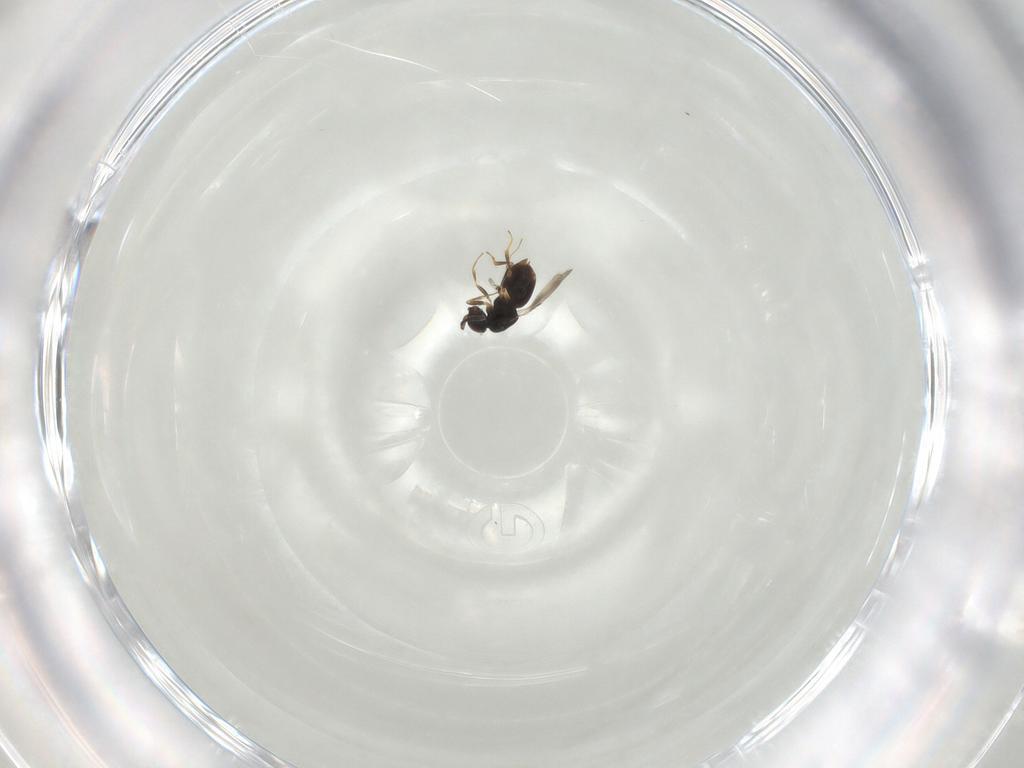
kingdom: Animalia
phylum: Arthropoda
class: Insecta
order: Hymenoptera
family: Ceraphronidae
